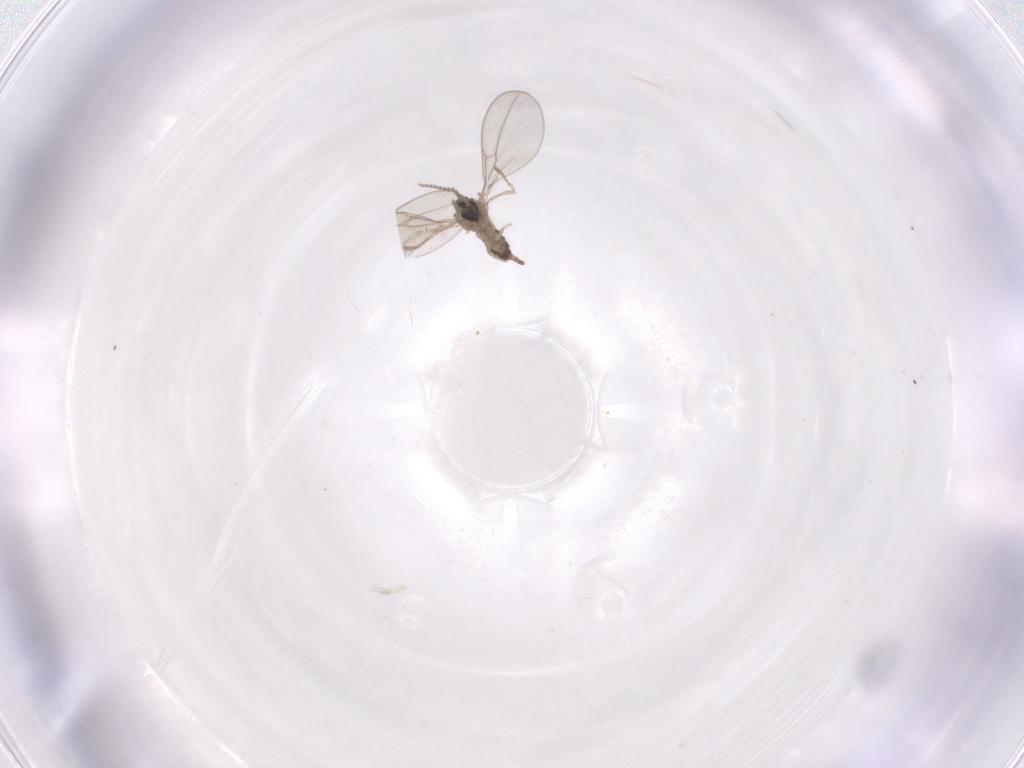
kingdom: Animalia
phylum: Arthropoda
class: Insecta
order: Diptera
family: Cecidomyiidae
